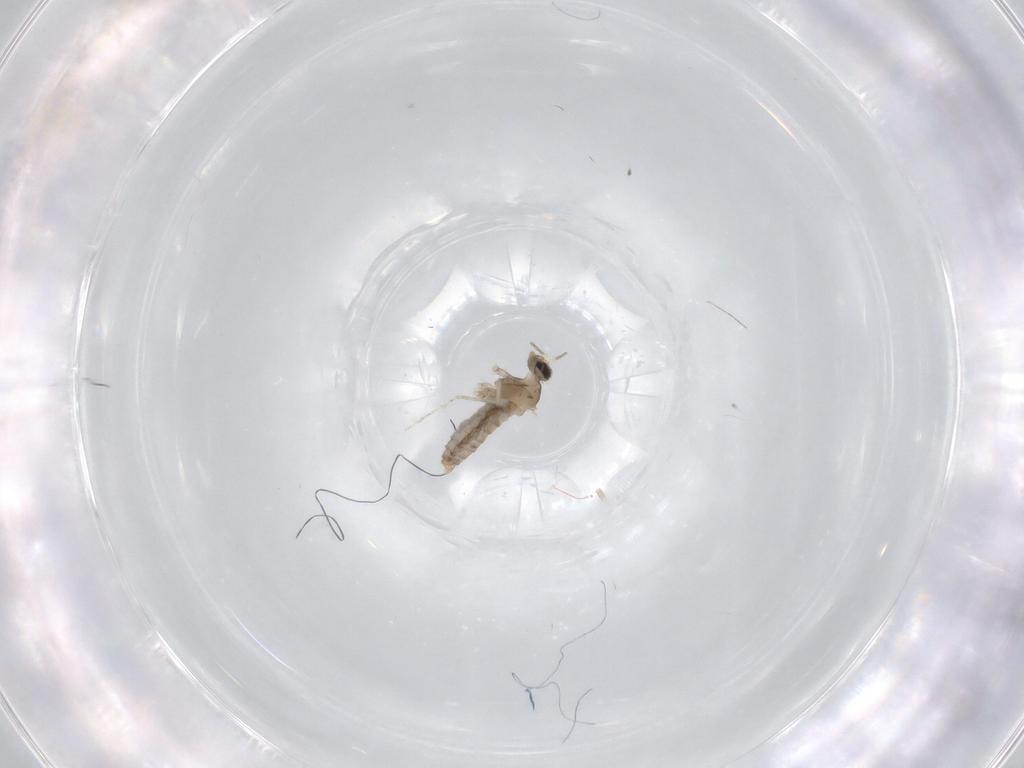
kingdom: Animalia
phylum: Arthropoda
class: Insecta
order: Diptera
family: Cecidomyiidae
